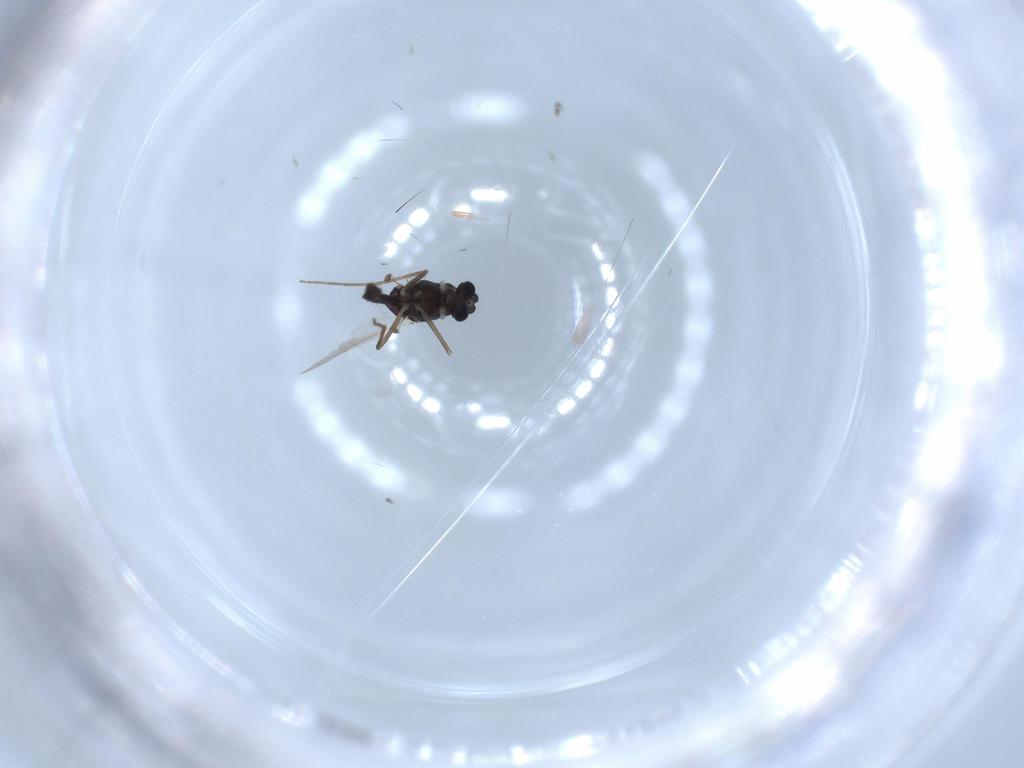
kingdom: Animalia
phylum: Arthropoda
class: Insecta
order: Diptera
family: Chironomidae
